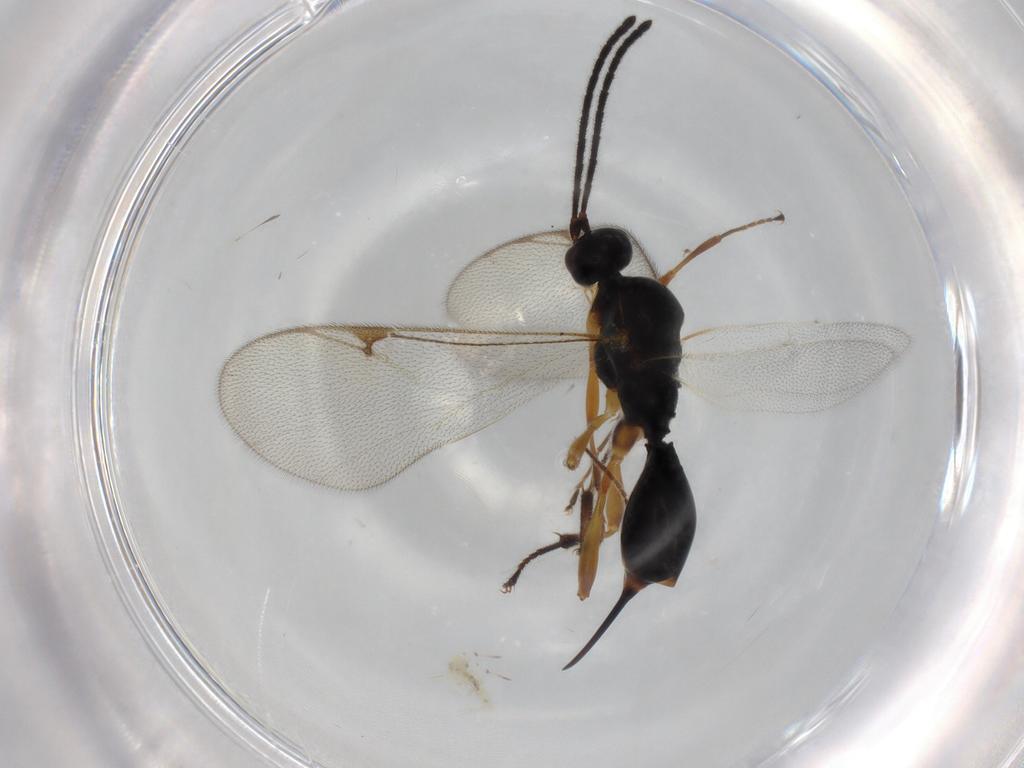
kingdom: Animalia
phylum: Arthropoda
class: Insecta
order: Hymenoptera
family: Proctotrupidae
